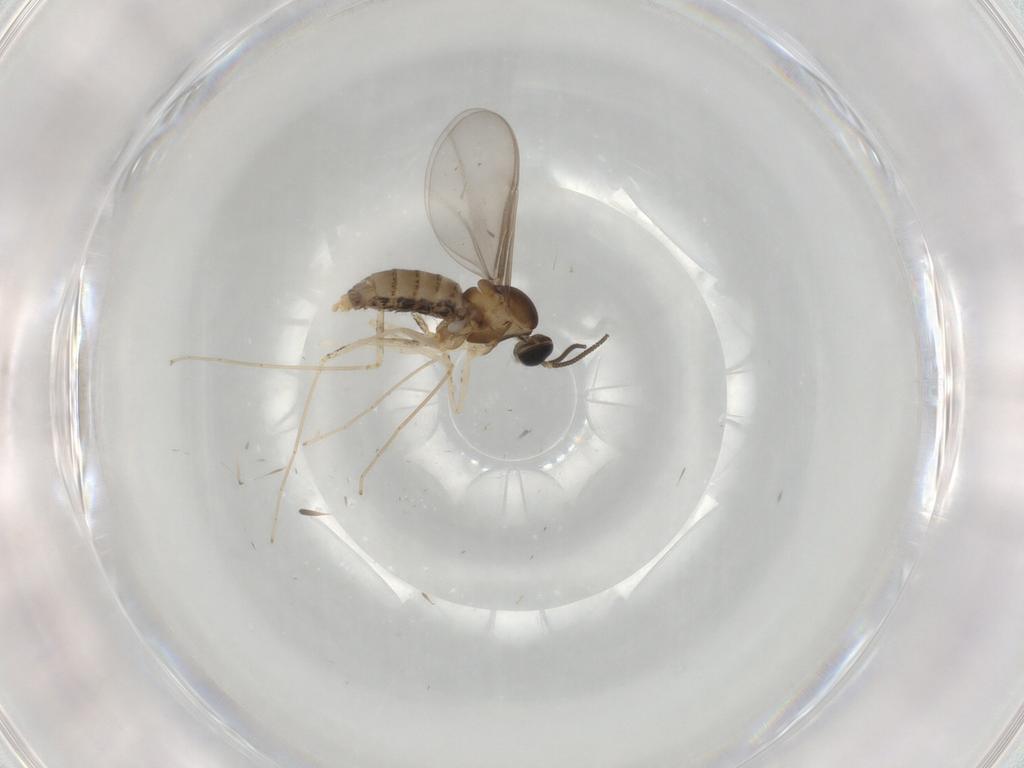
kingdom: Animalia
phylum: Arthropoda
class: Insecta
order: Diptera
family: Cecidomyiidae
